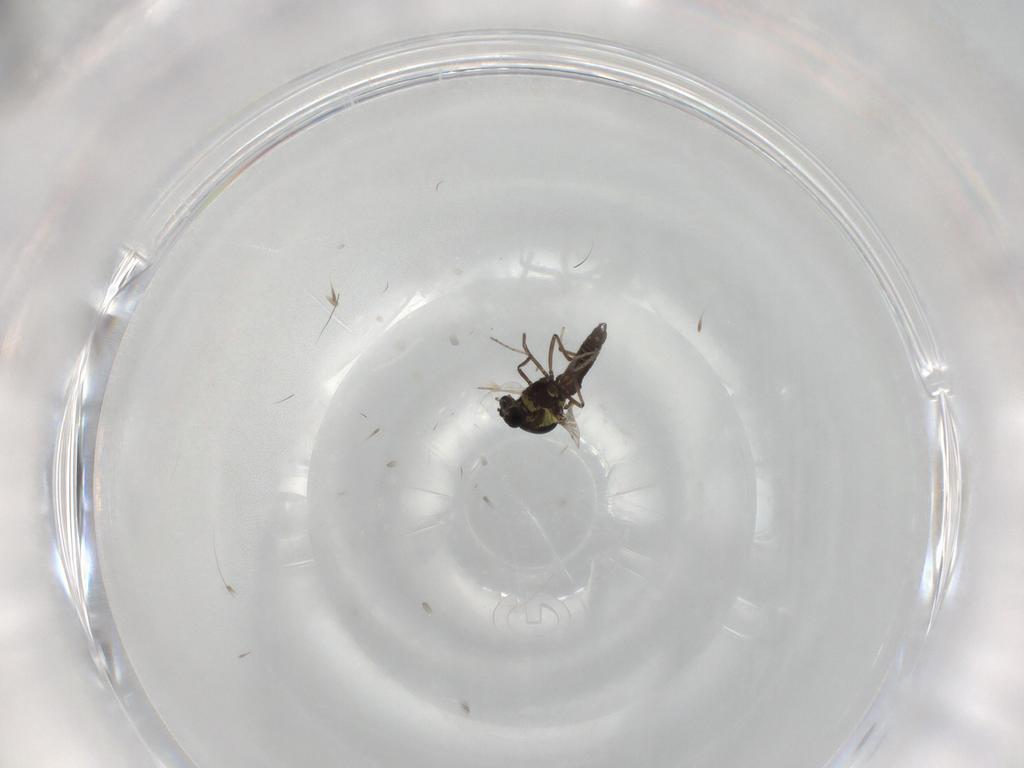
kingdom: Animalia
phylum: Arthropoda
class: Insecta
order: Diptera
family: Ceratopogonidae
